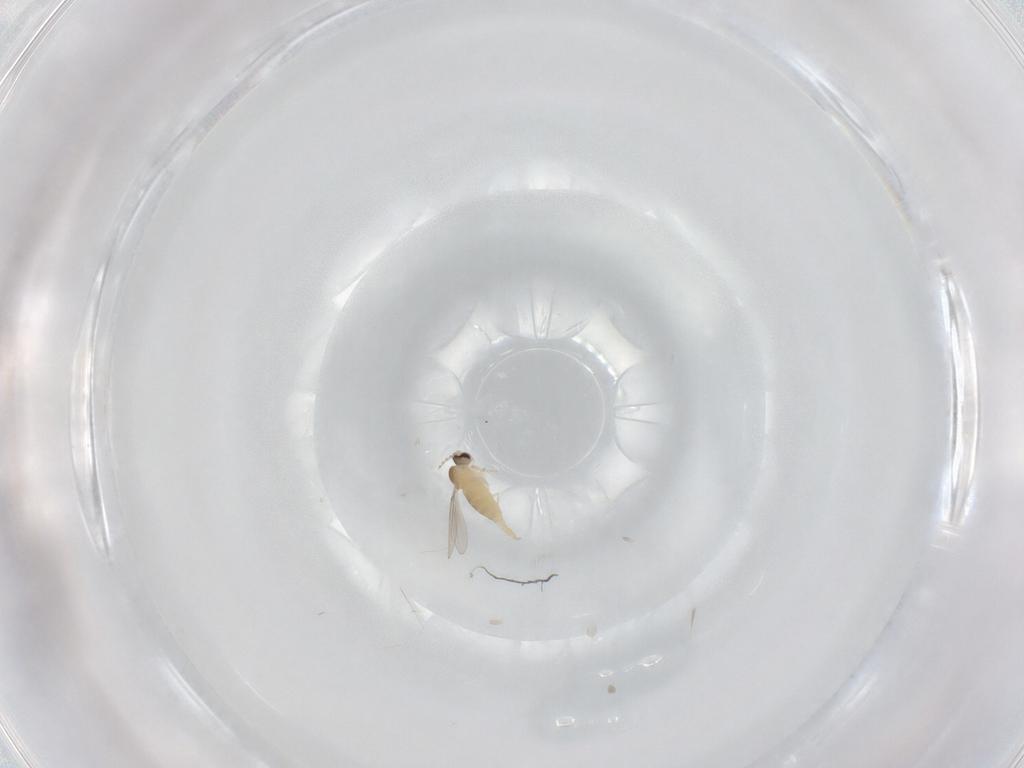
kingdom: Animalia
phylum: Arthropoda
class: Insecta
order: Diptera
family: Cecidomyiidae
